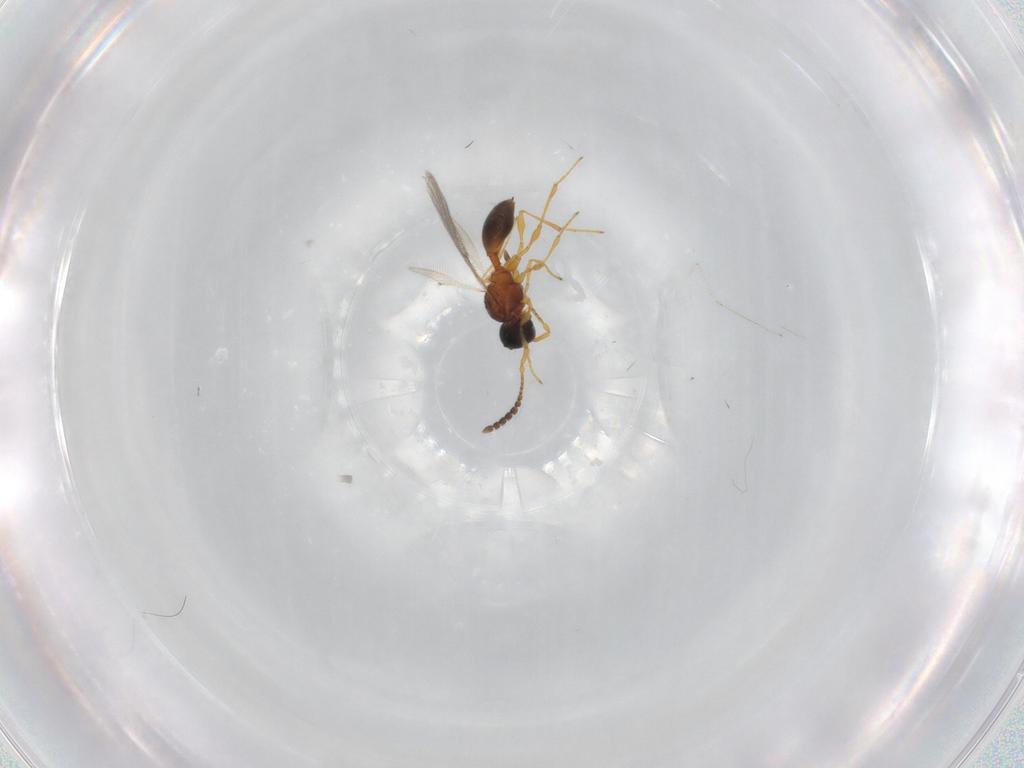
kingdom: Animalia
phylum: Arthropoda
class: Insecta
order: Hymenoptera
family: Diapriidae
